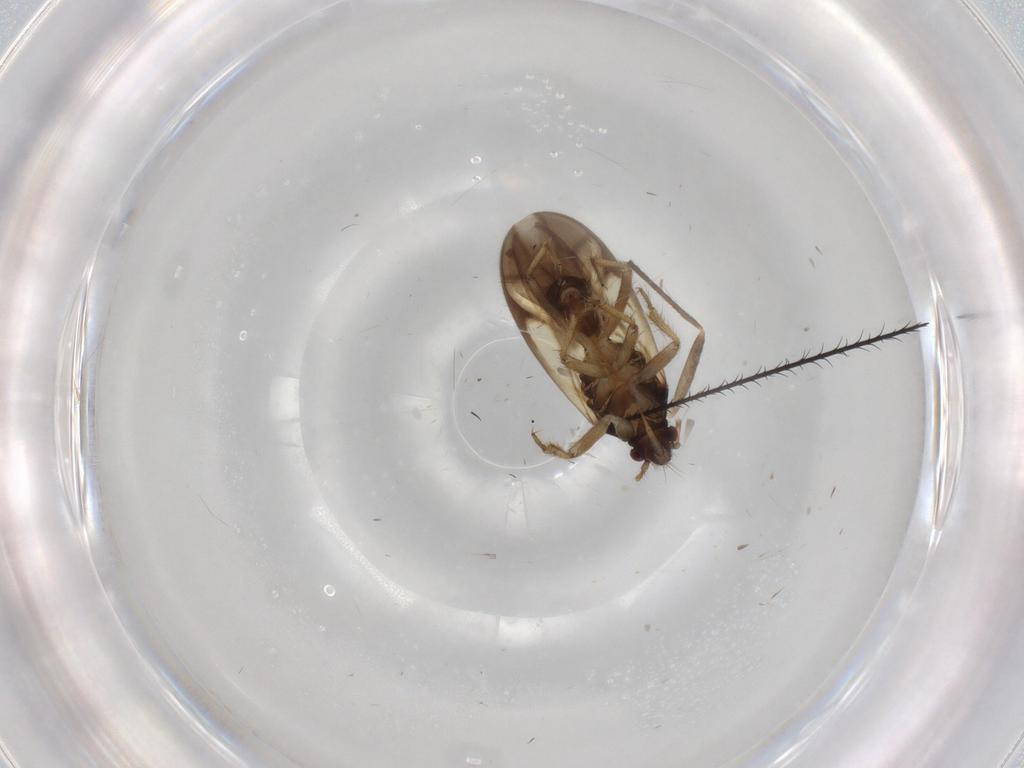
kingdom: Animalia
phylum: Arthropoda
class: Insecta
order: Hemiptera
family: Ceratocombidae
